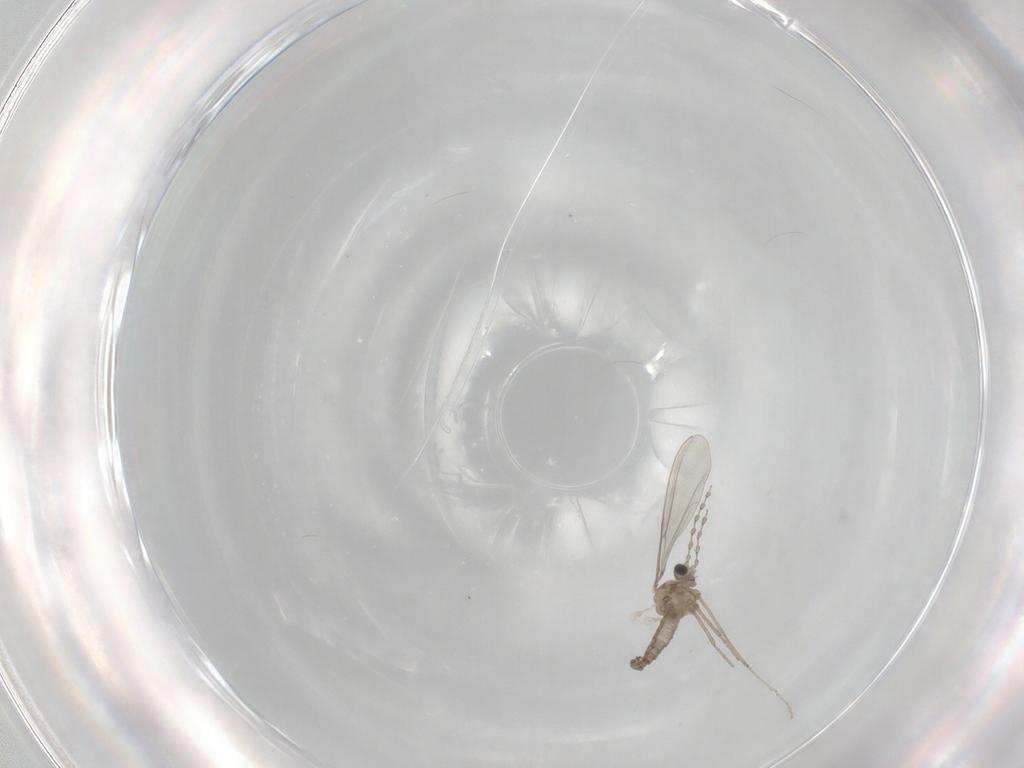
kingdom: Animalia
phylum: Arthropoda
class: Insecta
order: Diptera
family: Cecidomyiidae
